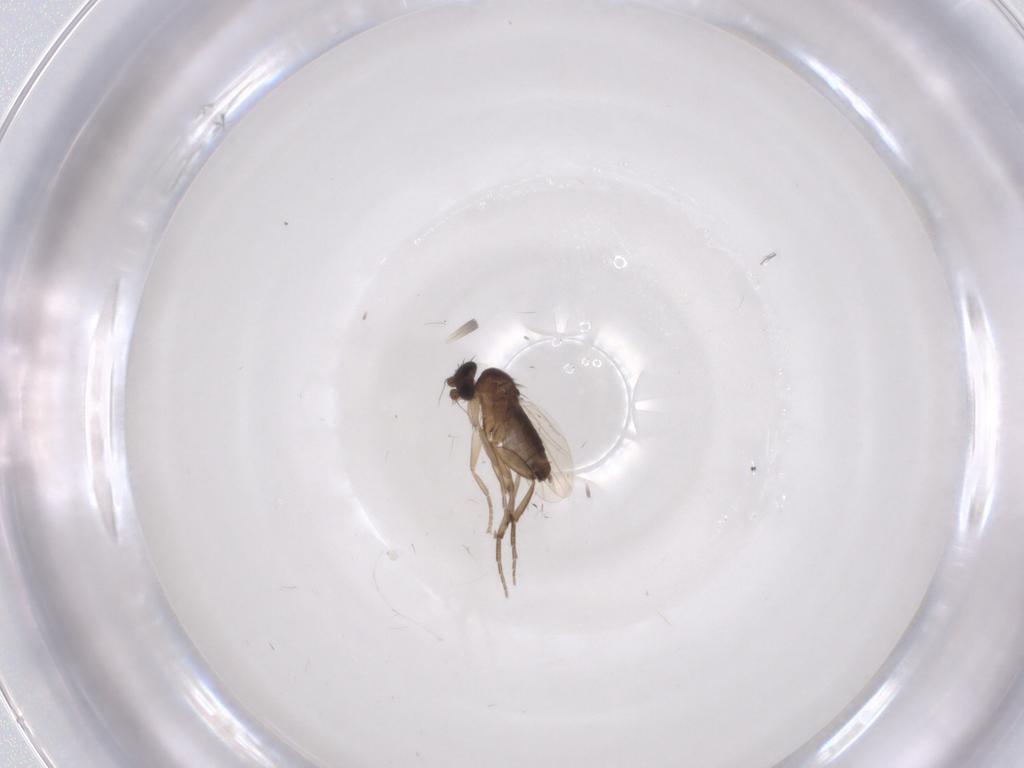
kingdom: Animalia
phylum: Arthropoda
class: Insecta
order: Diptera
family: Phoridae
